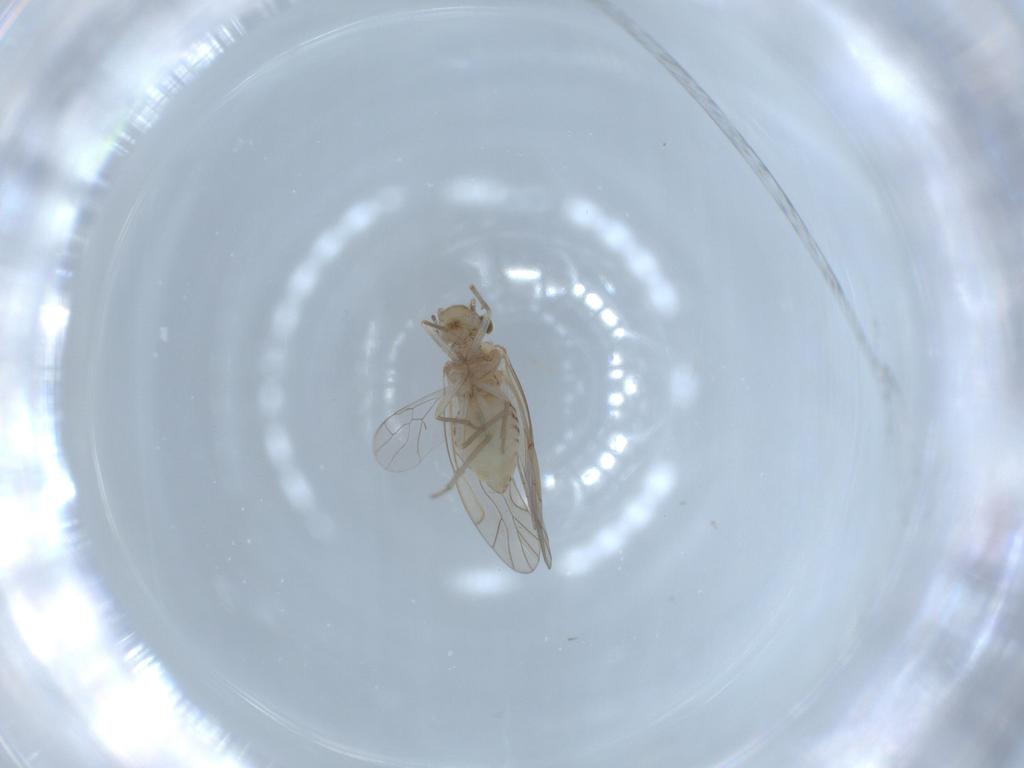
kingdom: Animalia
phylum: Arthropoda
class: Insecta
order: Psocodea
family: Lachesillidae
